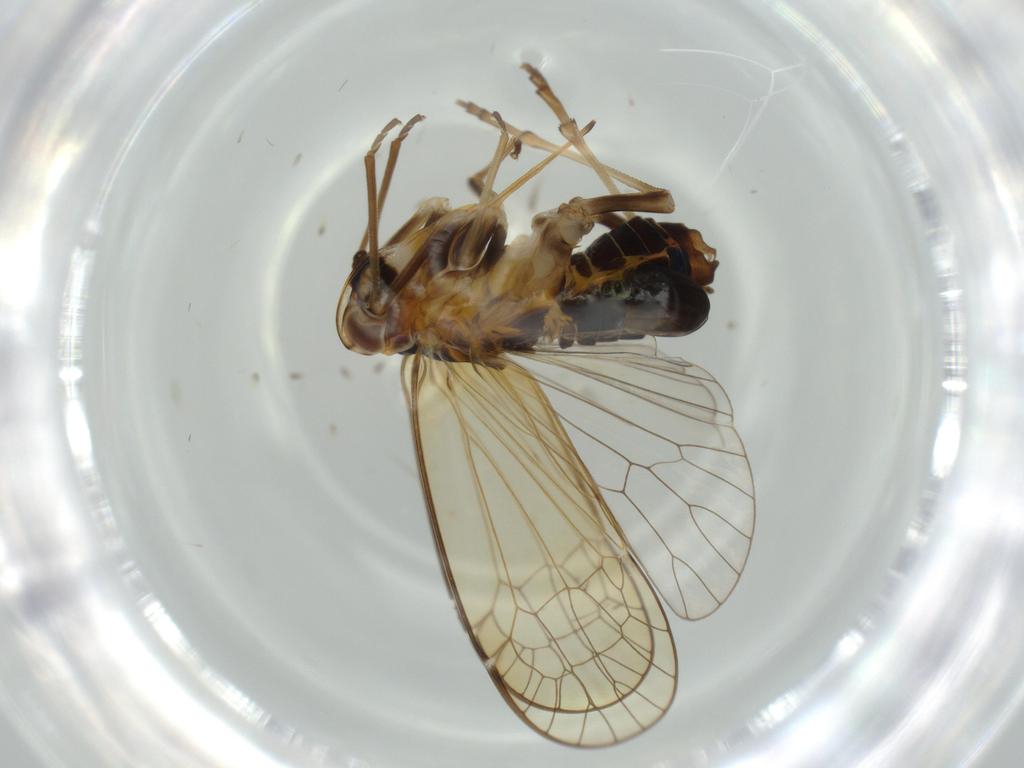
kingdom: Animalia
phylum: Arthropoda
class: Insecta
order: Hemiptera
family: Kinnaridae
